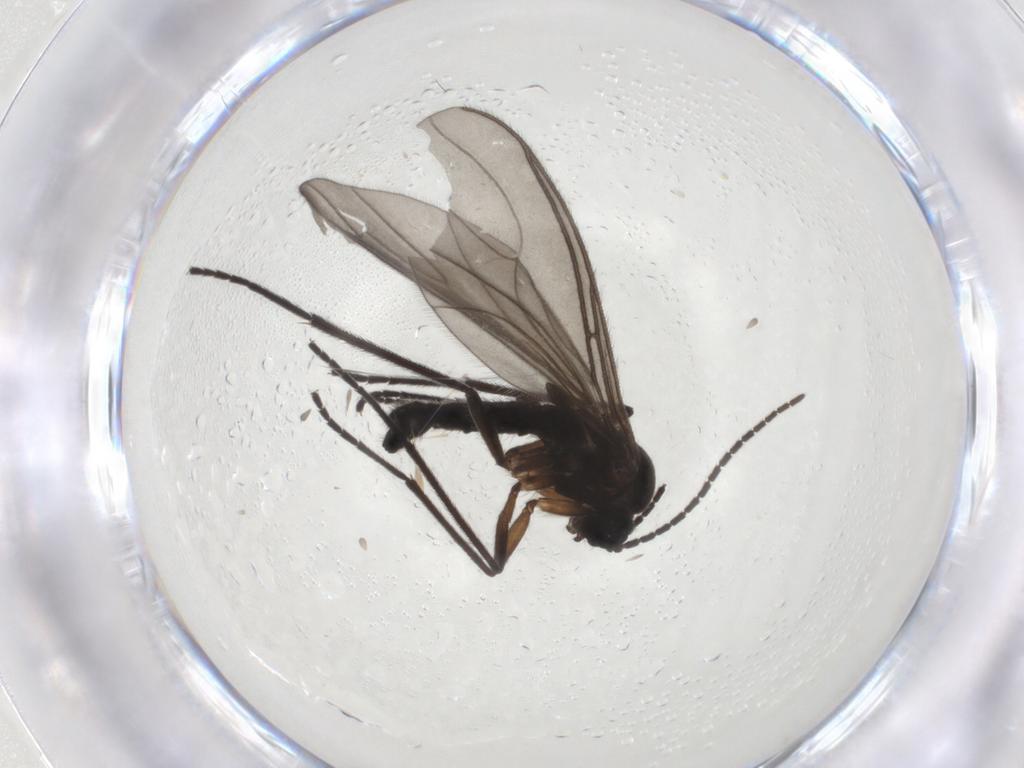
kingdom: Animalia
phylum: Arthropoda
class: Insecta
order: Diptera
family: Sciaridae
